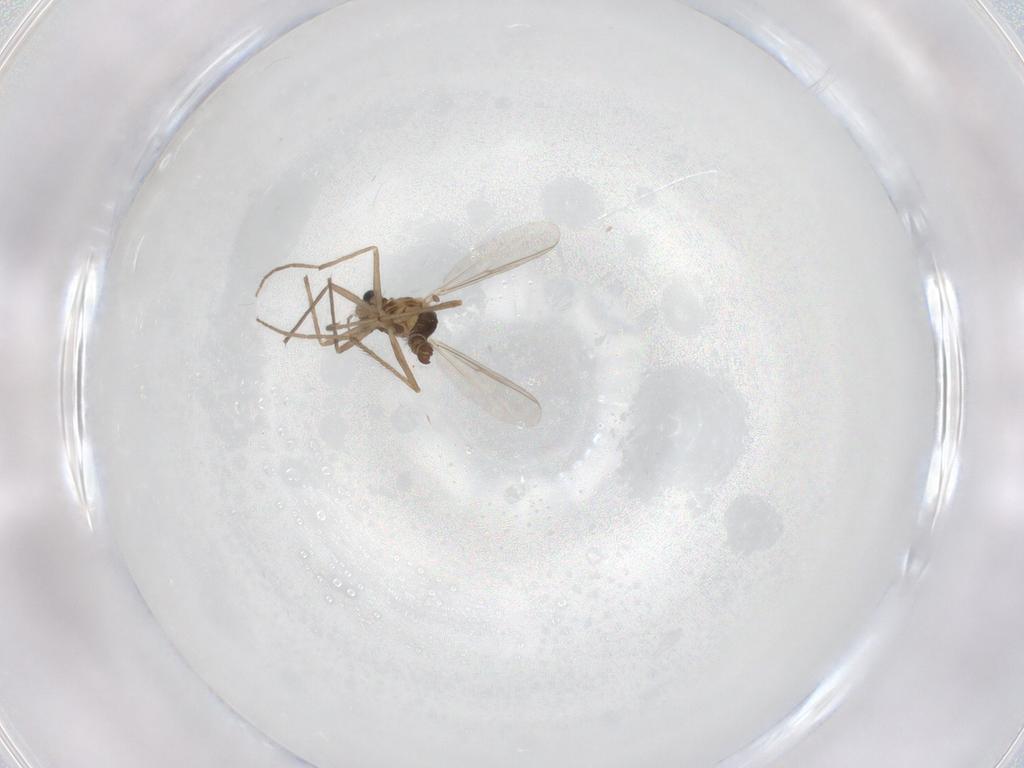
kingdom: Animalia
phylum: Arthropoda
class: Insecta
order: Diptera
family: Chironomidae
